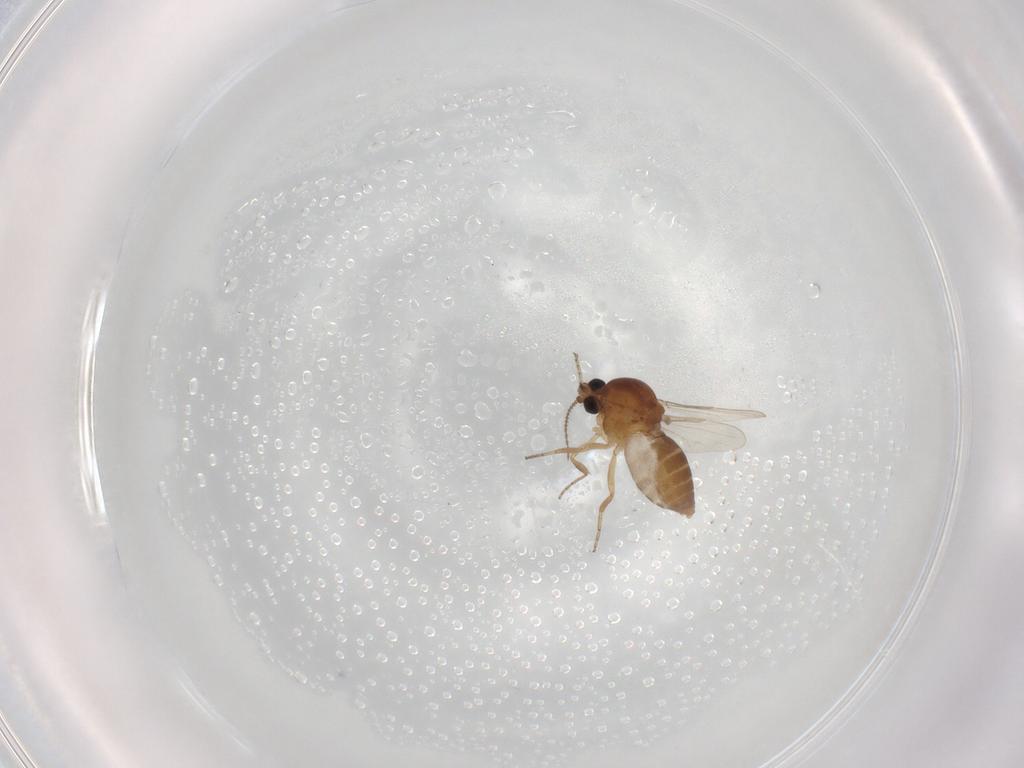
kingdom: Animalia
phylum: Arthropoda
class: Insecta
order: Diptera
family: Ceratopogonidae
